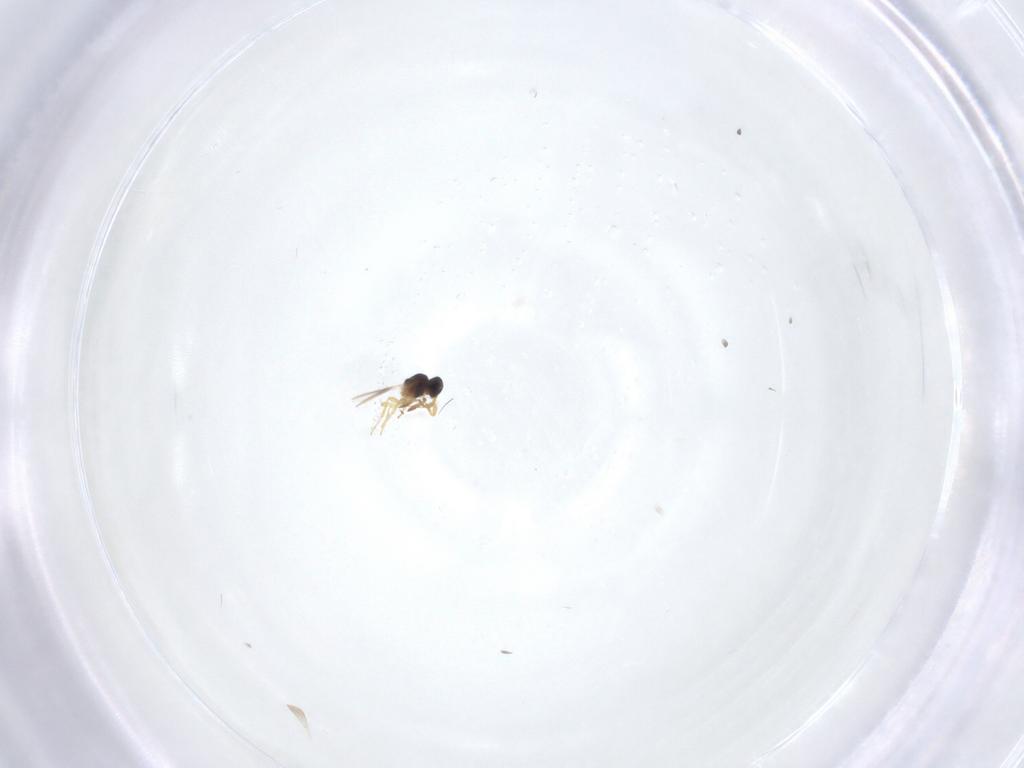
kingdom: Animalia
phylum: Arthropoda
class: Insecta
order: Hymenoptera
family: Platygastridae
